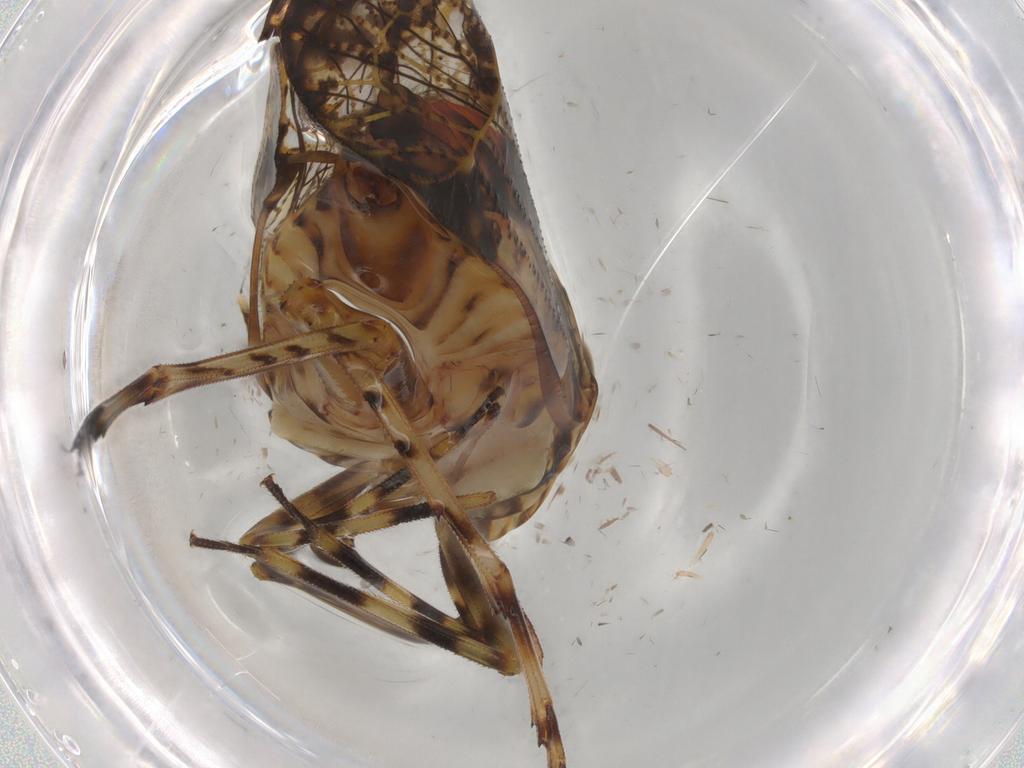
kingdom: Animalia
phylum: Arthropoda
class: Insecta
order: Hemiptera
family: Delphacidae
